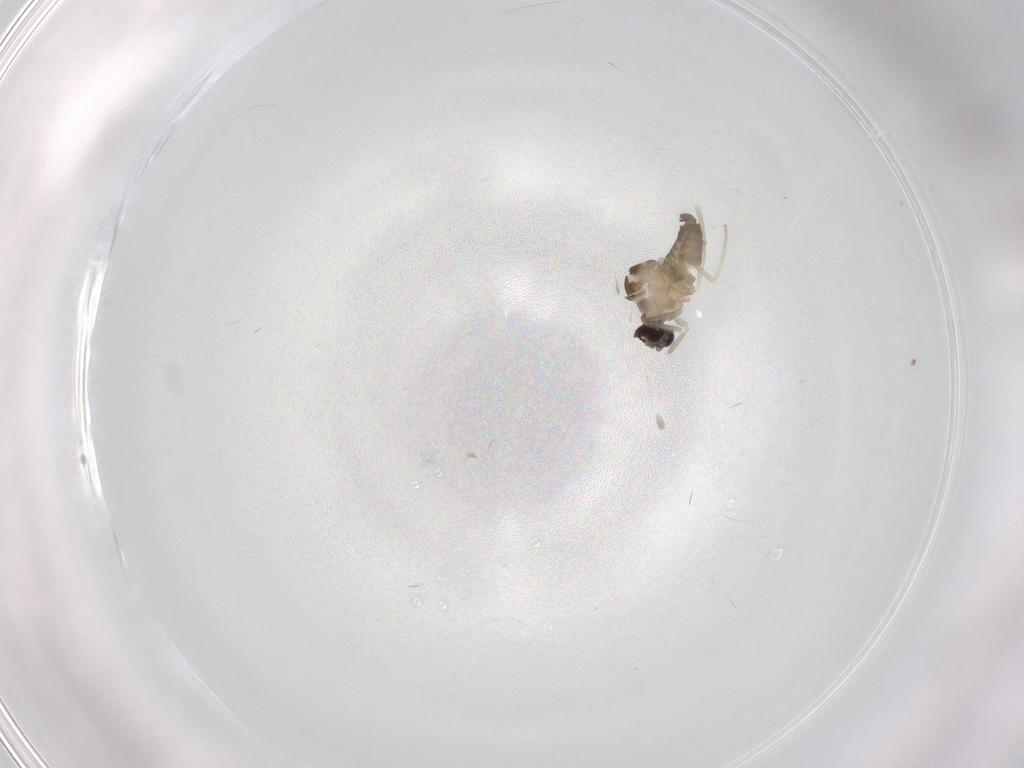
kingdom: Animalia
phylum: Arthropoda
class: Insecta
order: Diptera
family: Cecidomyiidae
